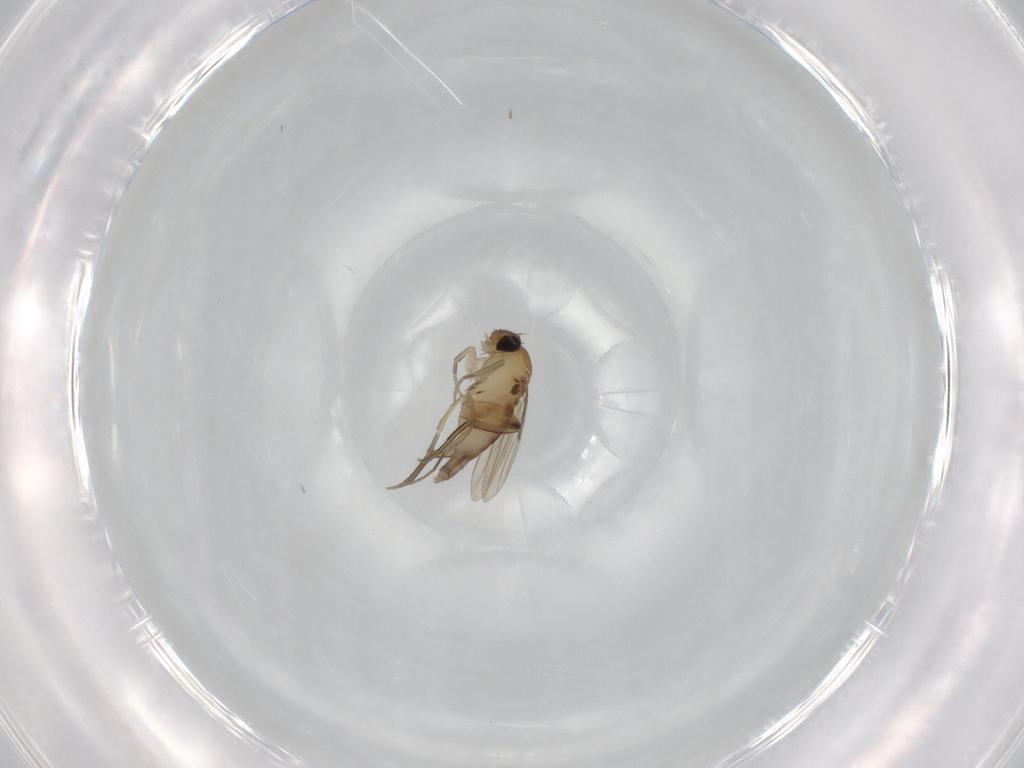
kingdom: Animalia
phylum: Arthropoda
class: Insecta
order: Diptera
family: Phoridae
